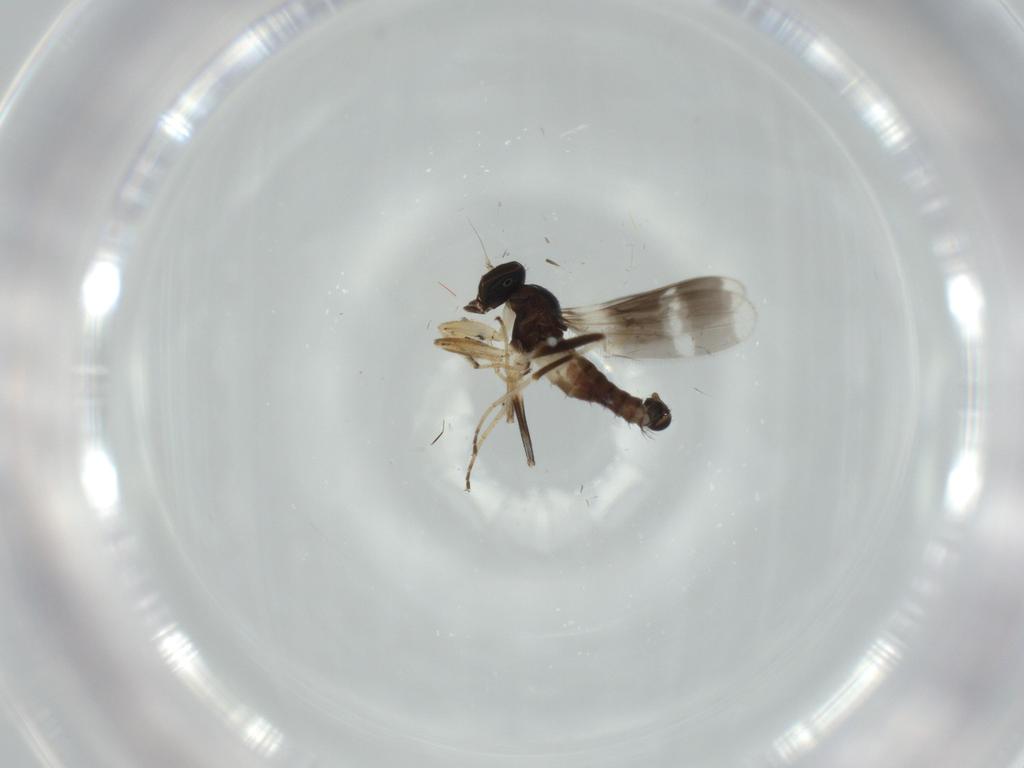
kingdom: Animalia
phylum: Arthropoda
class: Insecta
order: Diptera
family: Hybotidae
